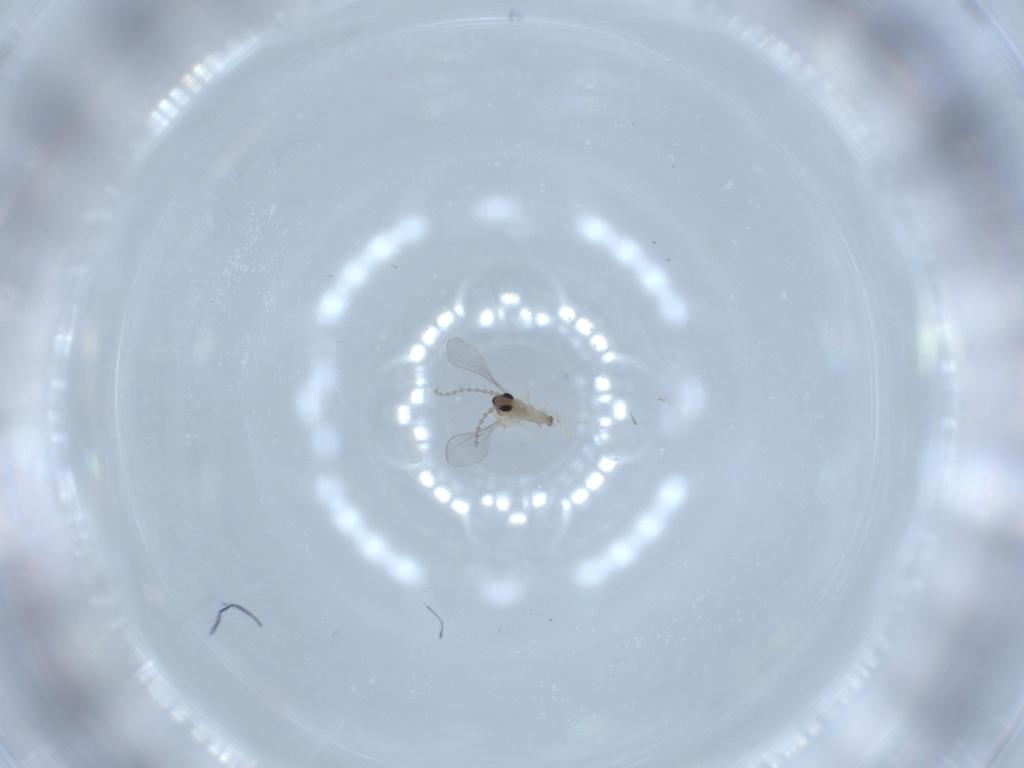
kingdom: Animalia
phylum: Arthropoda
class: Insecta
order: Diptera
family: Cecidomyiidae
